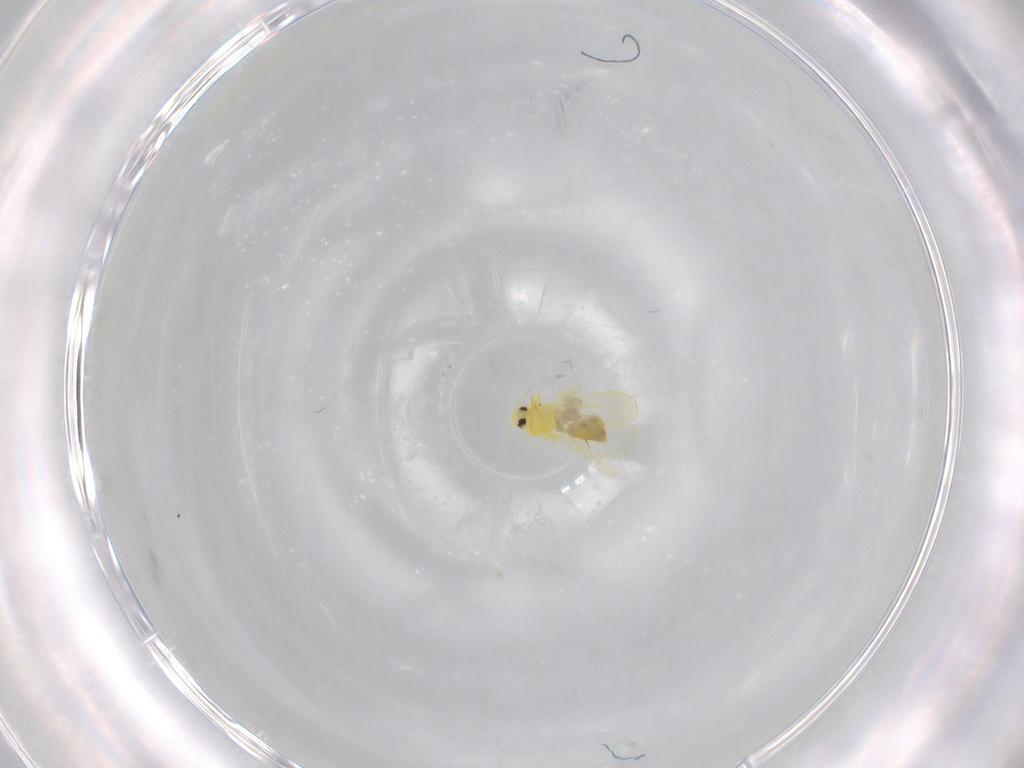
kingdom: Animalia
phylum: Arthropoda
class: Insecta
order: Hemiptera
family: Aleyrodidae
